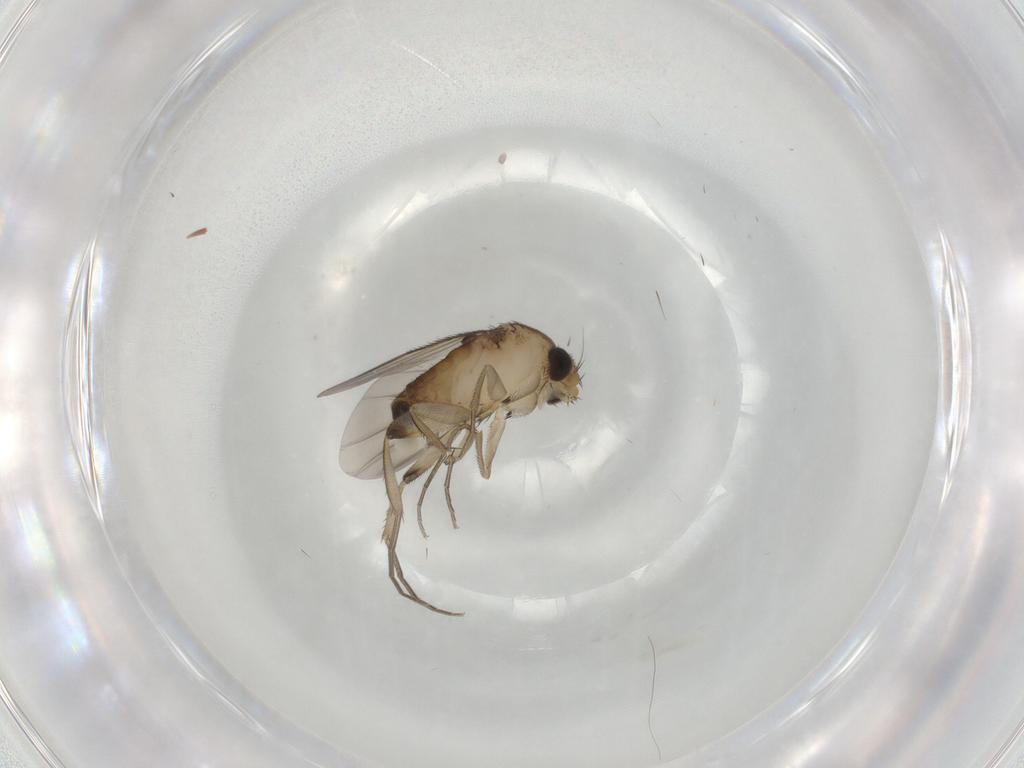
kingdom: Animalia
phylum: Arthropoda
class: Insecta
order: Diptera
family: Phoridae
